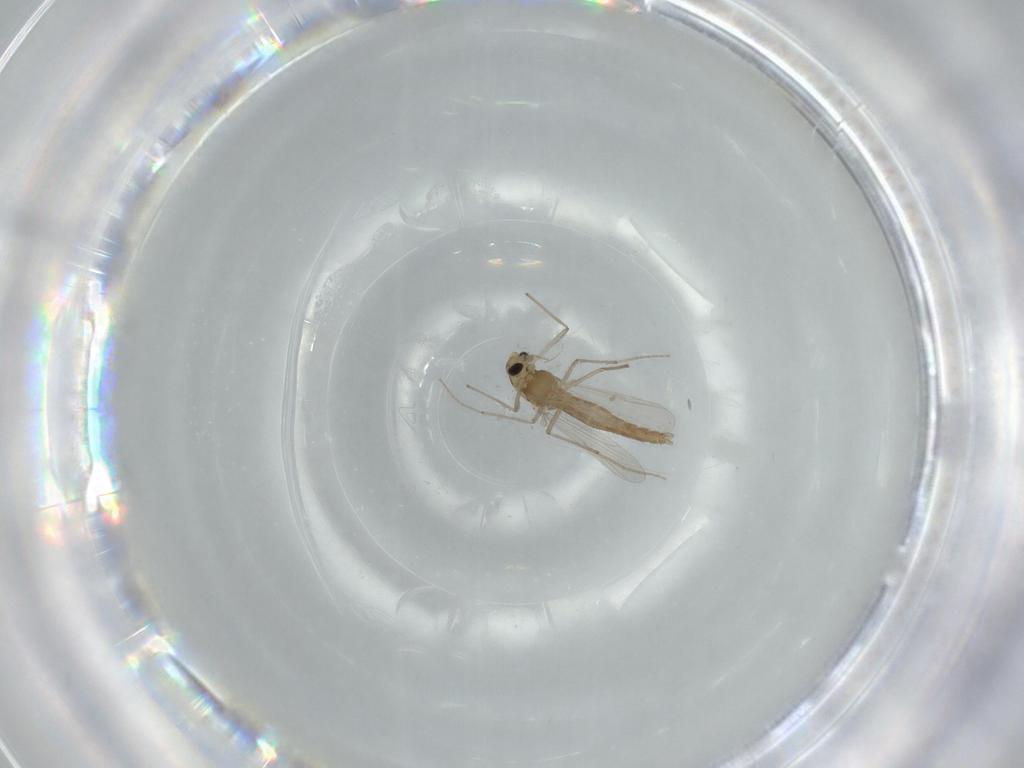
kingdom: Animalia
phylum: Arthropoda
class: Insecta
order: Diptera
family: Chironomidae
